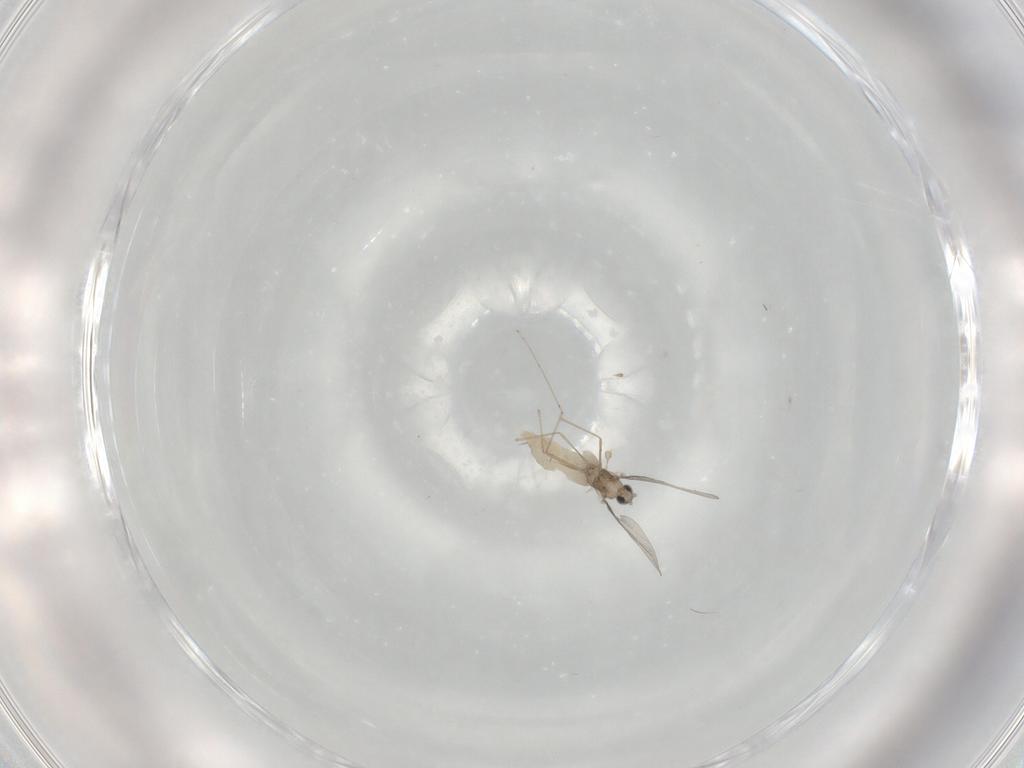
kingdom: Animalia
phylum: Arthropoda
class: Insecta
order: Diptera
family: Cecidomyiidae
